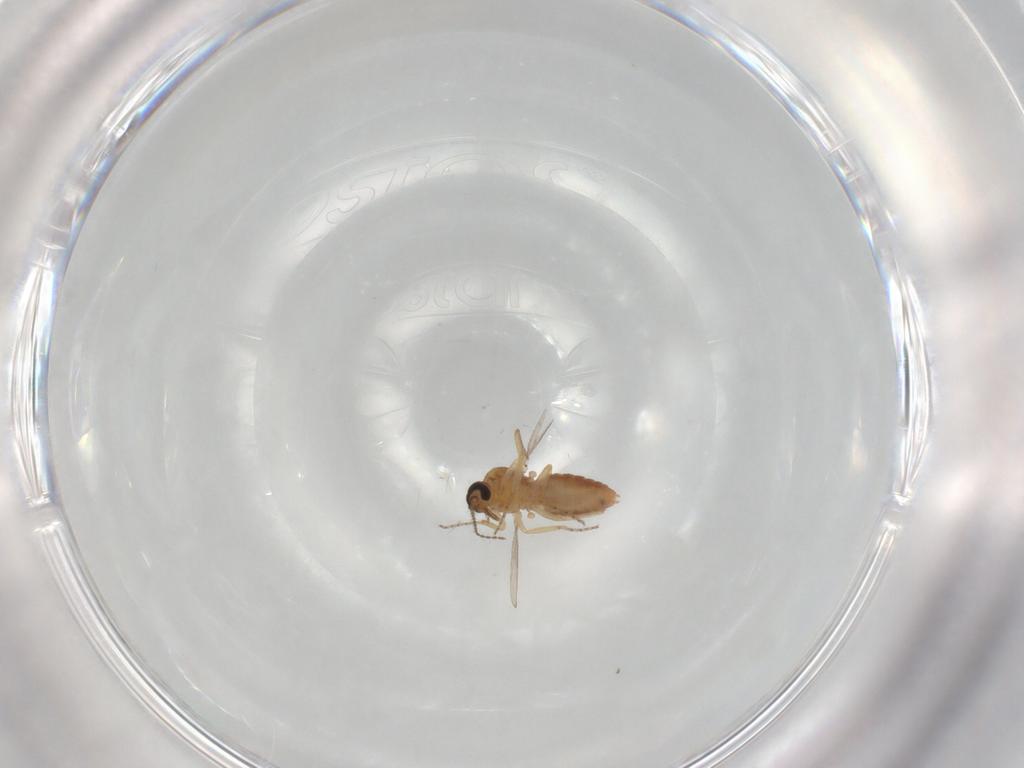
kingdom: Animalia
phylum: Arthropoda
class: Insecta
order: Diptera
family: Ceratopogonidae
